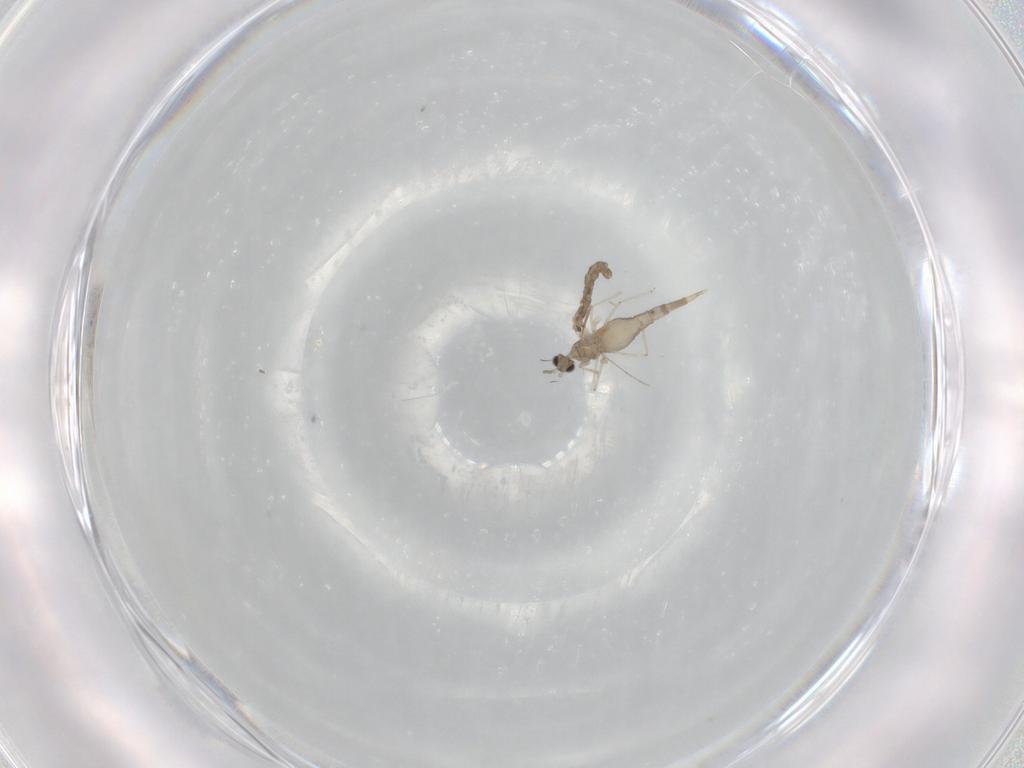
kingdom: Animalia
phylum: Arthropoda
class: Insecta
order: Diptera
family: Cecidomyiidae
